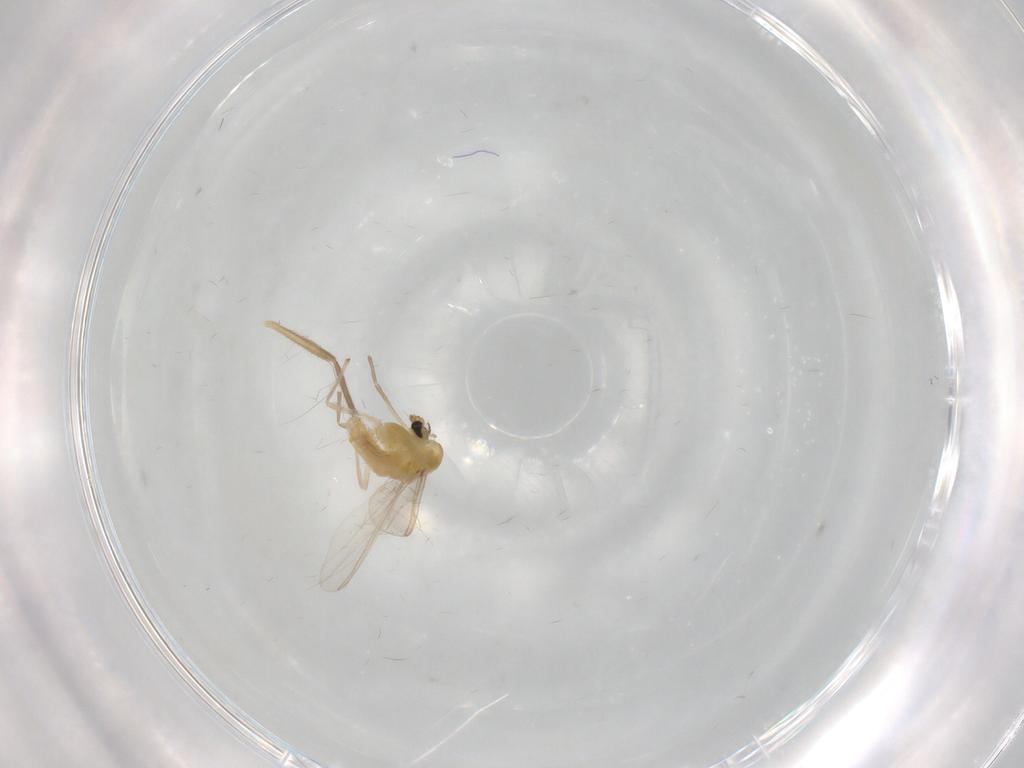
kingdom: Animalia
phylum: Arthropoda
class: Insecta
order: Diptera
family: Chironomidae
